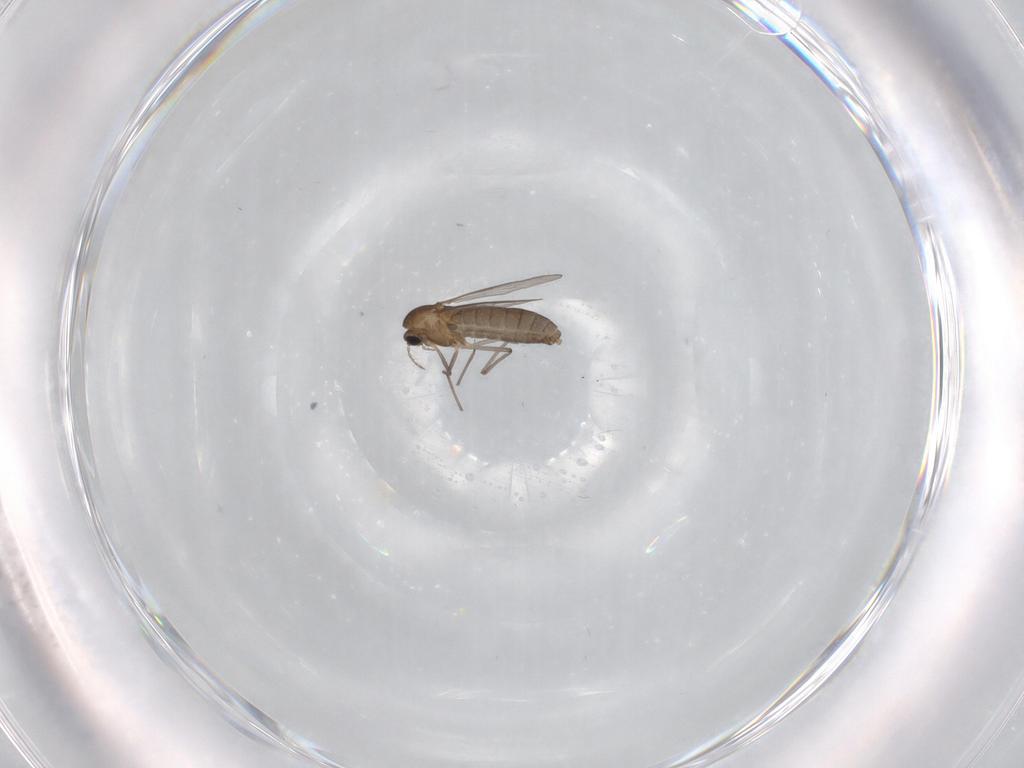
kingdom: Animalia
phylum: Arthropoda
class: Insecta
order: Diptera
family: Chironomidae
